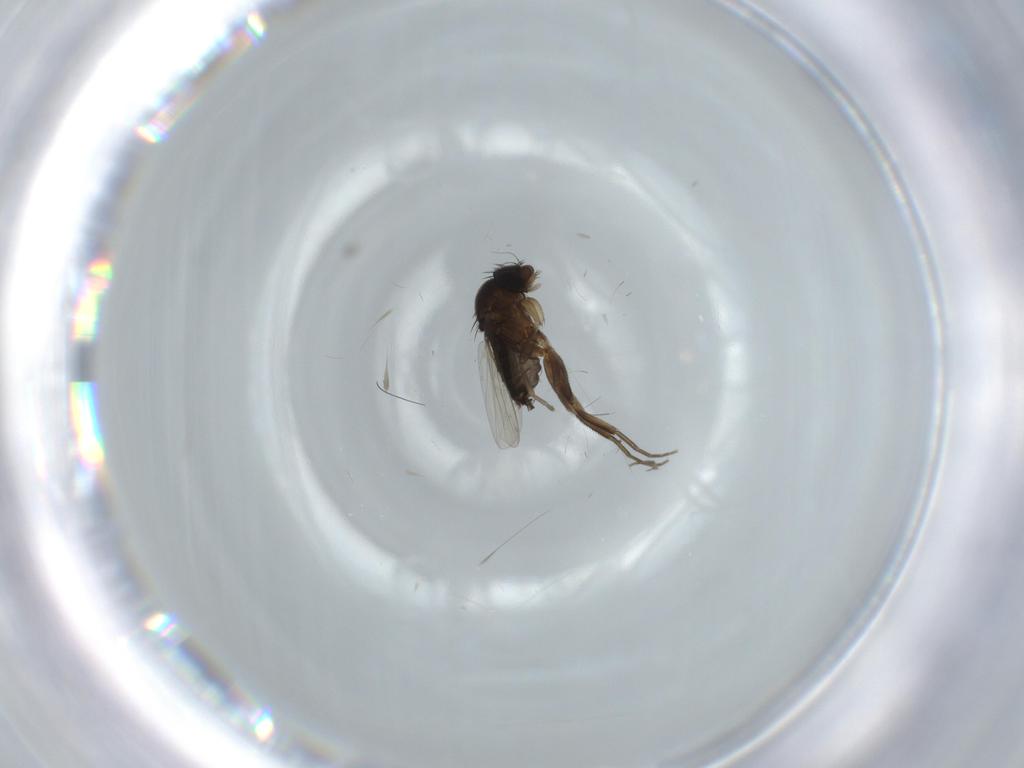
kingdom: Animalia
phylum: Arthropoda
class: Insecta
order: Diptera
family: Phoridae
